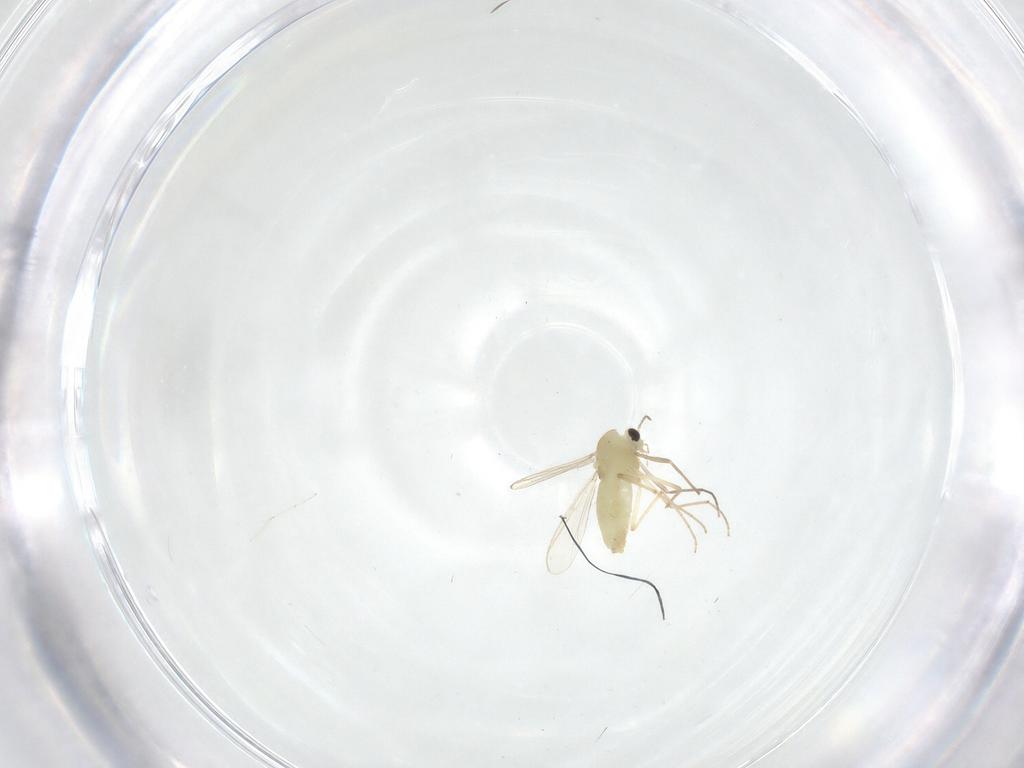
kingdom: Animalia
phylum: Arthropoda
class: Insecta
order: Diptera
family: Chironomidae
